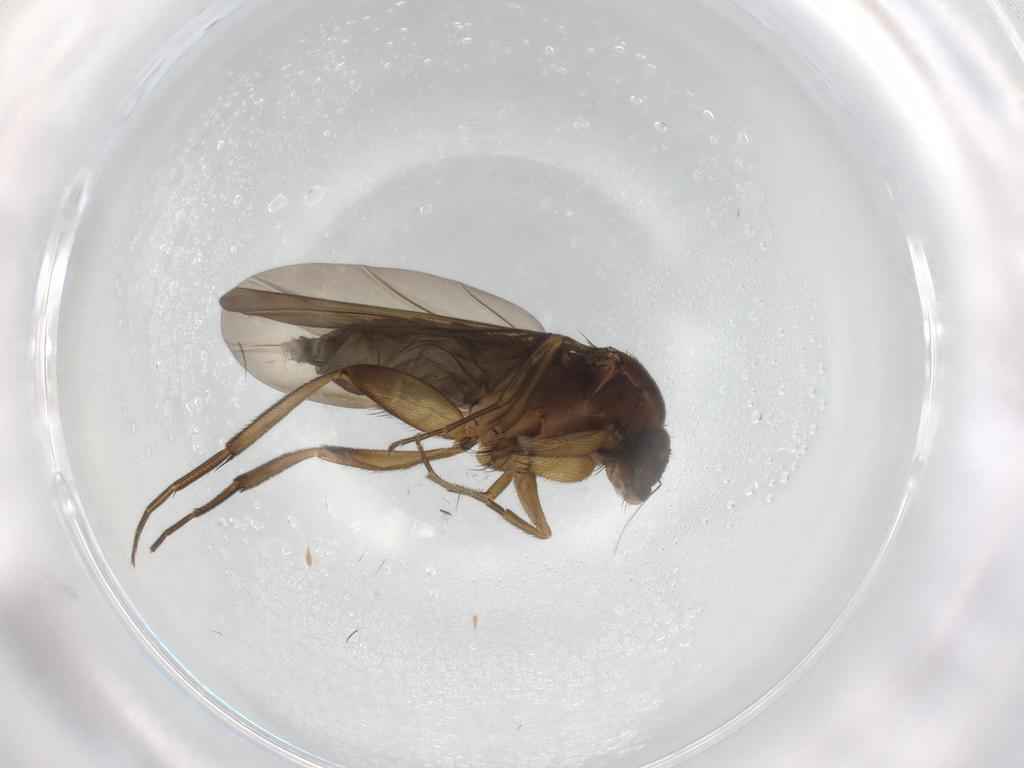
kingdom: Animalia
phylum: Arthropoda
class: Insecta
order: Diptera
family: Phoridae
